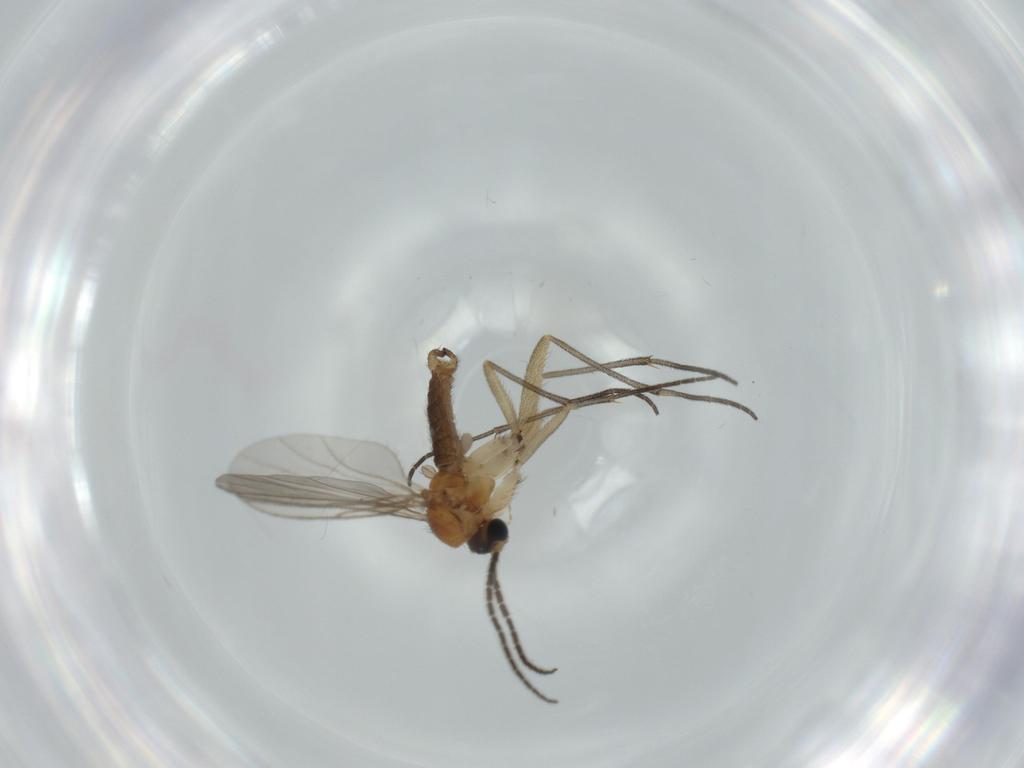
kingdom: Animalia
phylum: Arthropoda
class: Insecta
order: Diptera
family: Sciaridae
